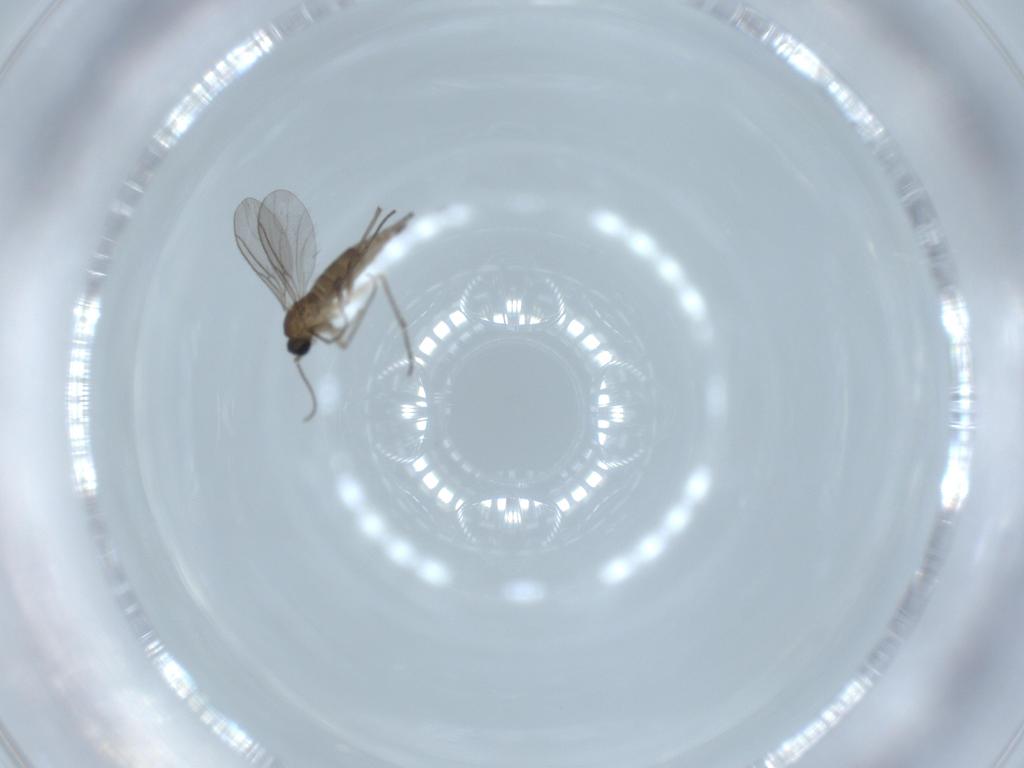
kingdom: Animalia
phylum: Arthropoda
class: Insecta
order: Diptera
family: Sciaridae
